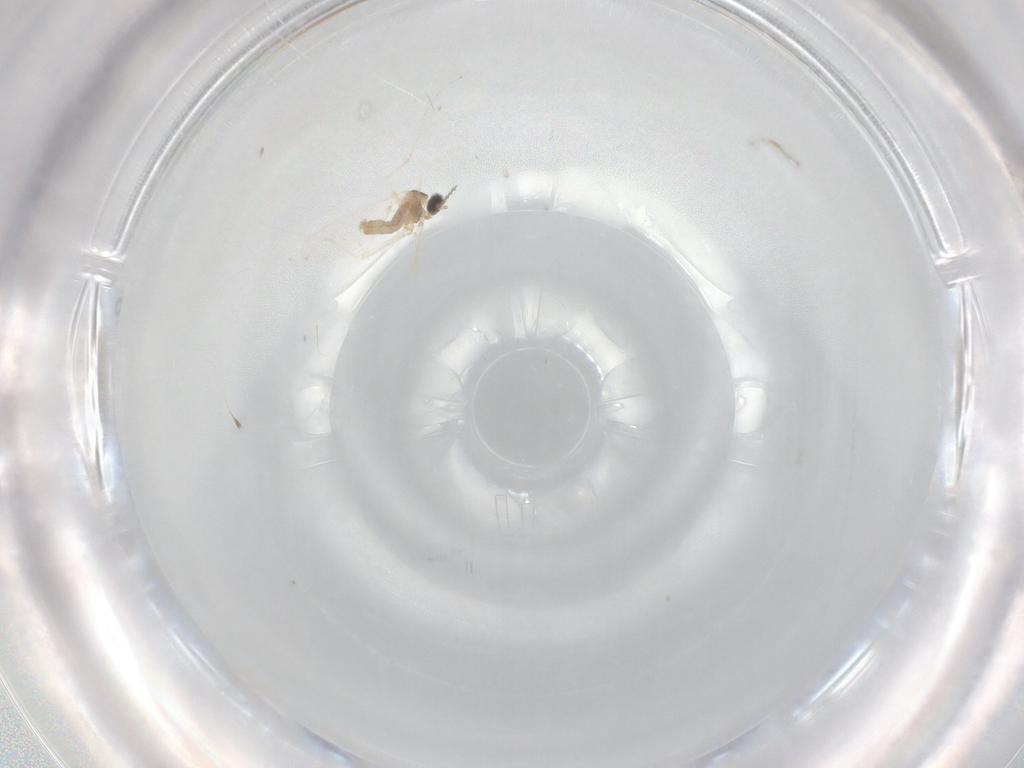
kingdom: Animalia
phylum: Arthropoda
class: Insecta
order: Diptera
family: Cecidomyiidae
